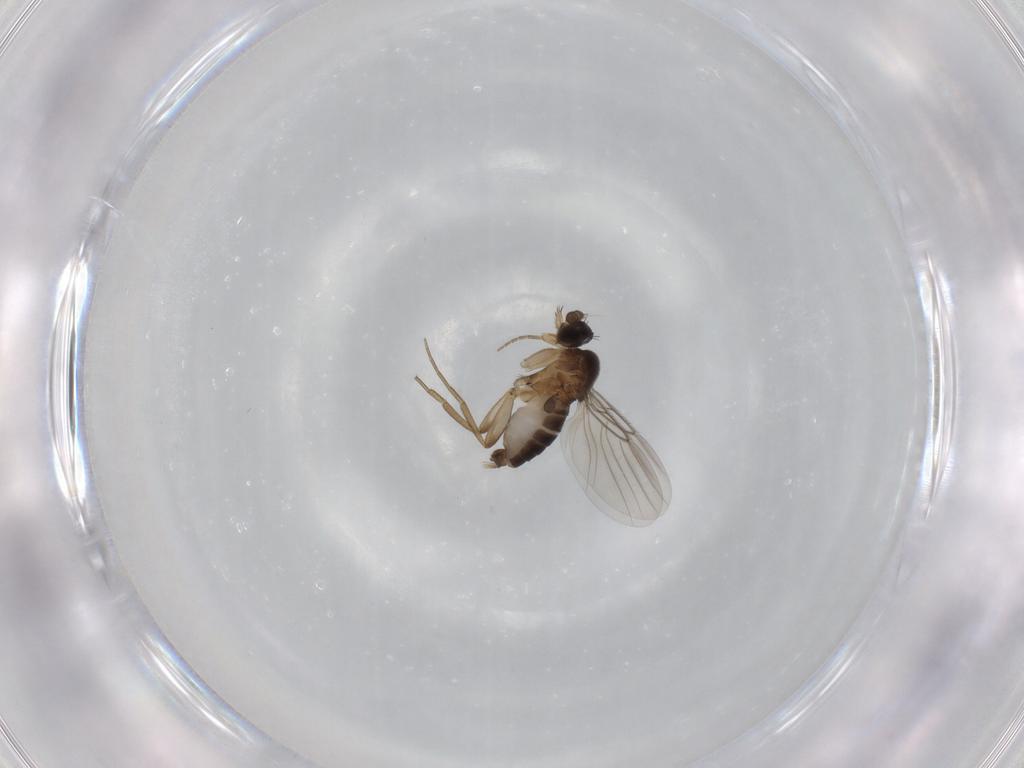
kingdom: Animalia
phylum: Arthropoda
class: Insecta
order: Diptera
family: Phoridae
